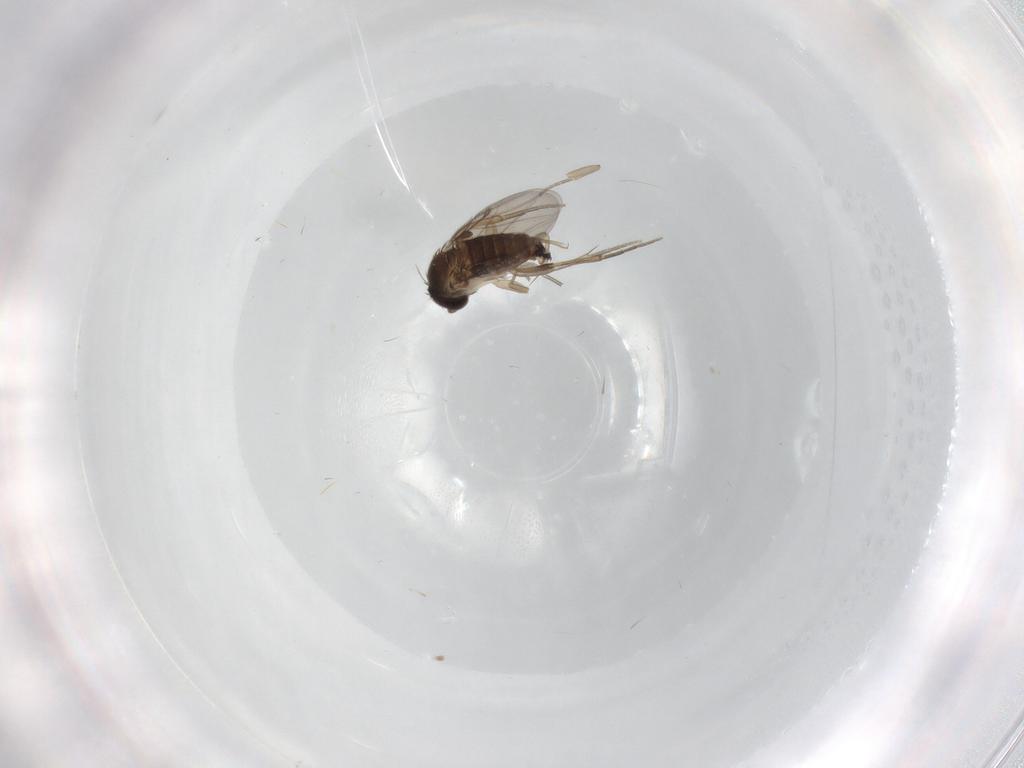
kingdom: Animalia
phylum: Arthropoda
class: Insecta
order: Diptera
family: Phoridae
